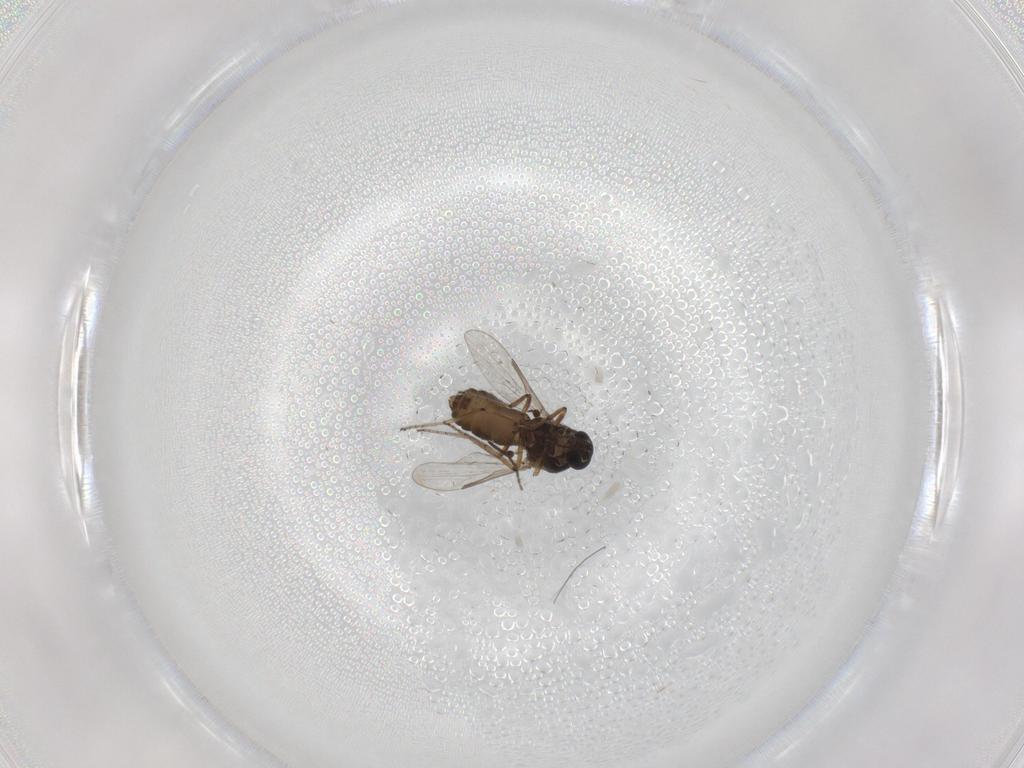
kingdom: Animalia
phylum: Arthropoda
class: Insecta
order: Diptera
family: Ceratopogonidae
